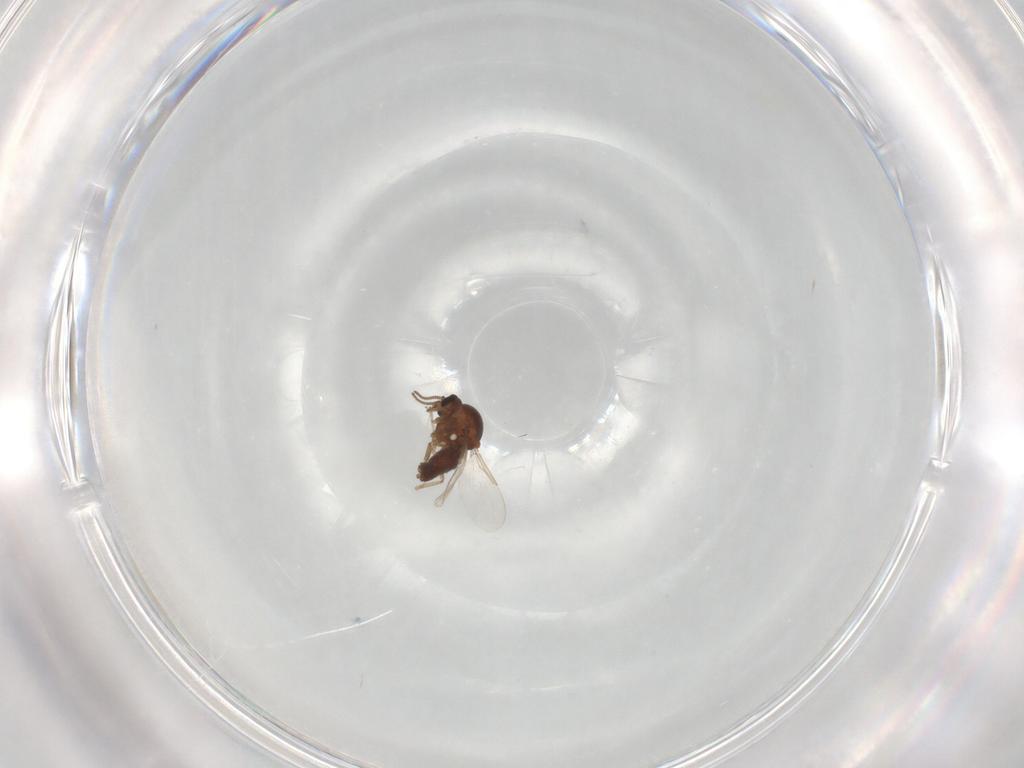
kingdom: Animalia
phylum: Arthropoda
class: Insecta
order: Diptera
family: Ceratopogonidae
